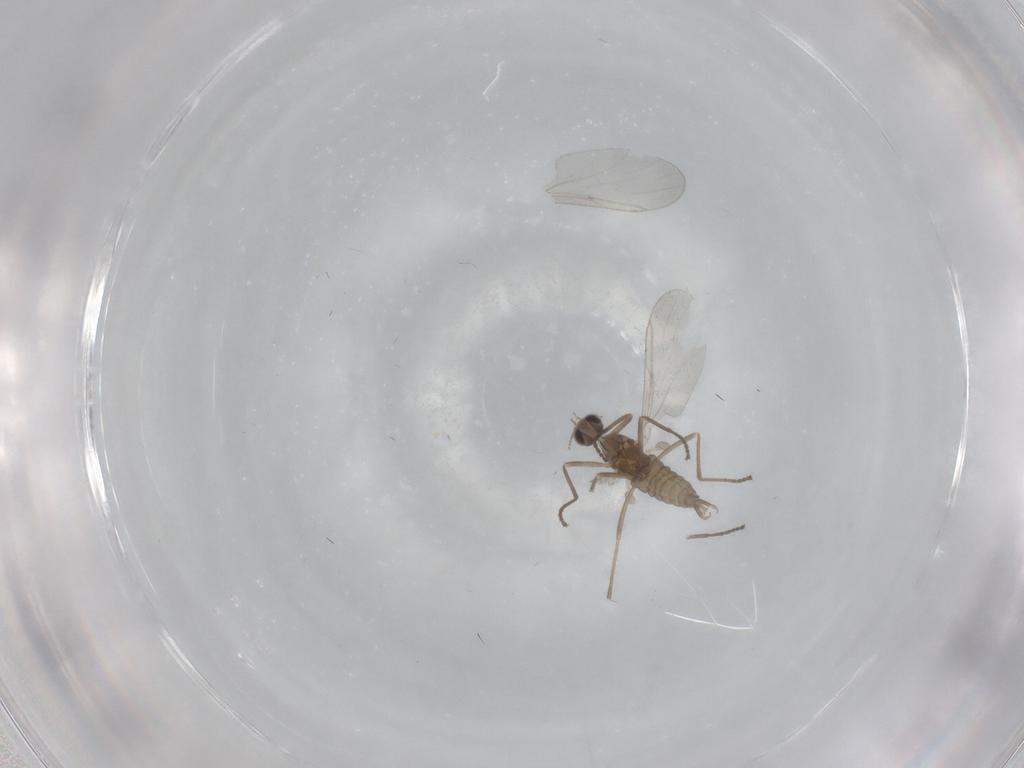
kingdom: Animalia
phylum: Arthropoda
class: Insecta
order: Diptera
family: Cecidomyiidae
